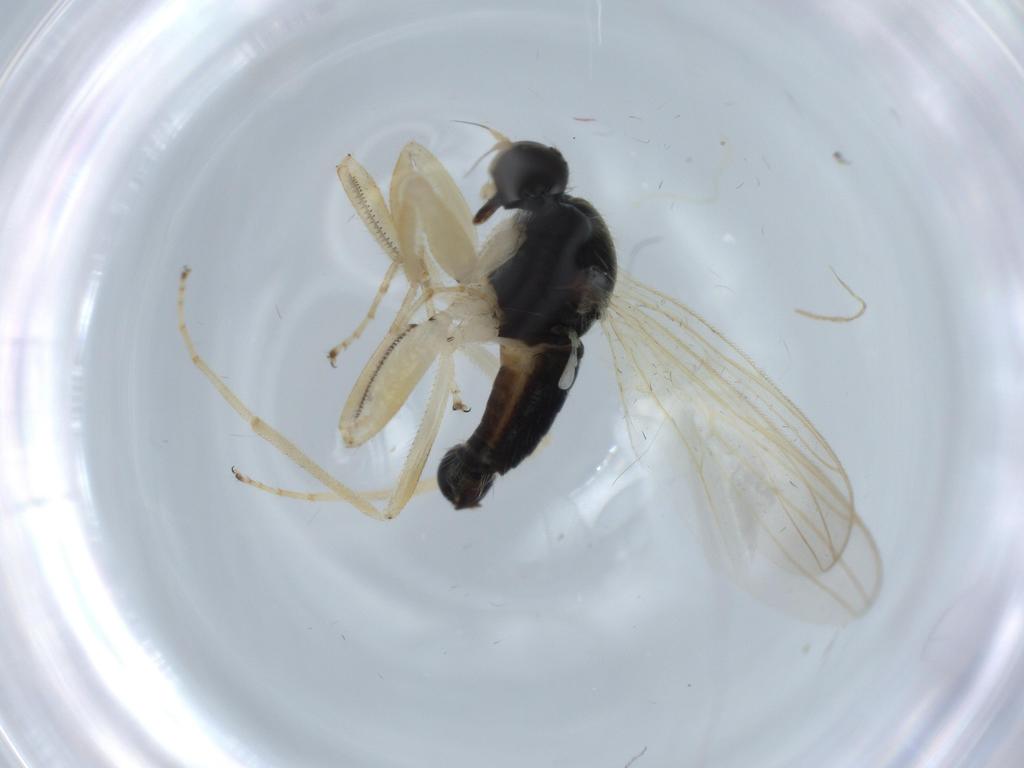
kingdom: Animalia
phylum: Arthropoda
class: Insecta
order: Diptera
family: Hybotidae
